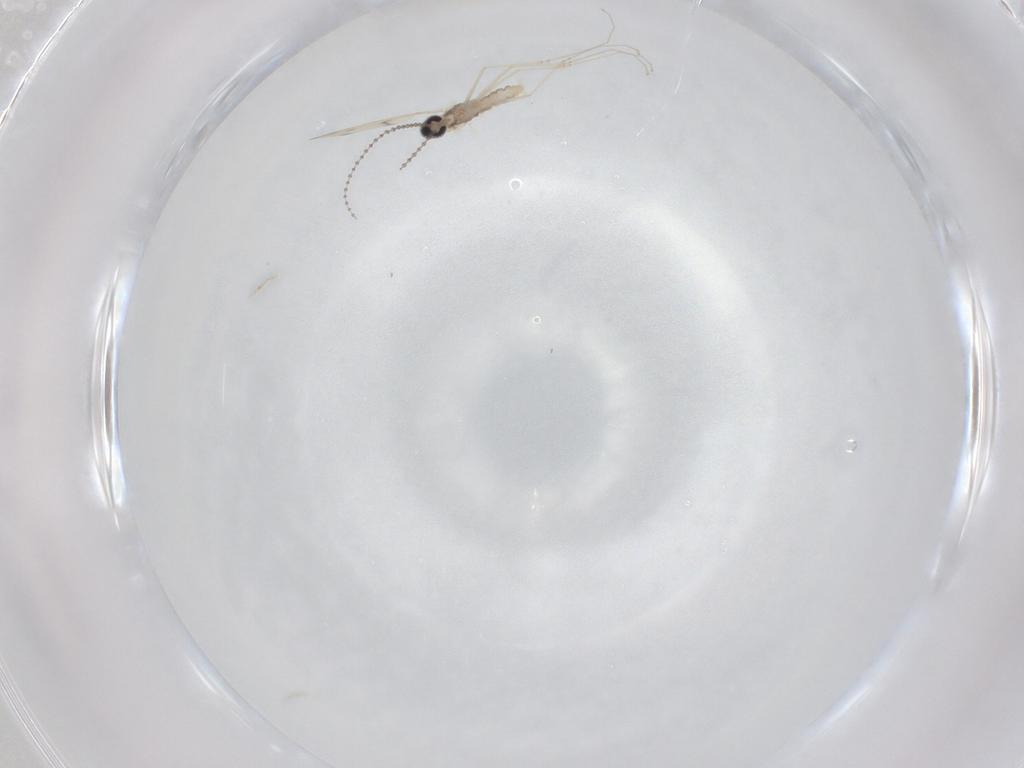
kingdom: Animalia
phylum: Arthropoda
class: Insecta
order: Diptera
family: Cecidomyiidae
